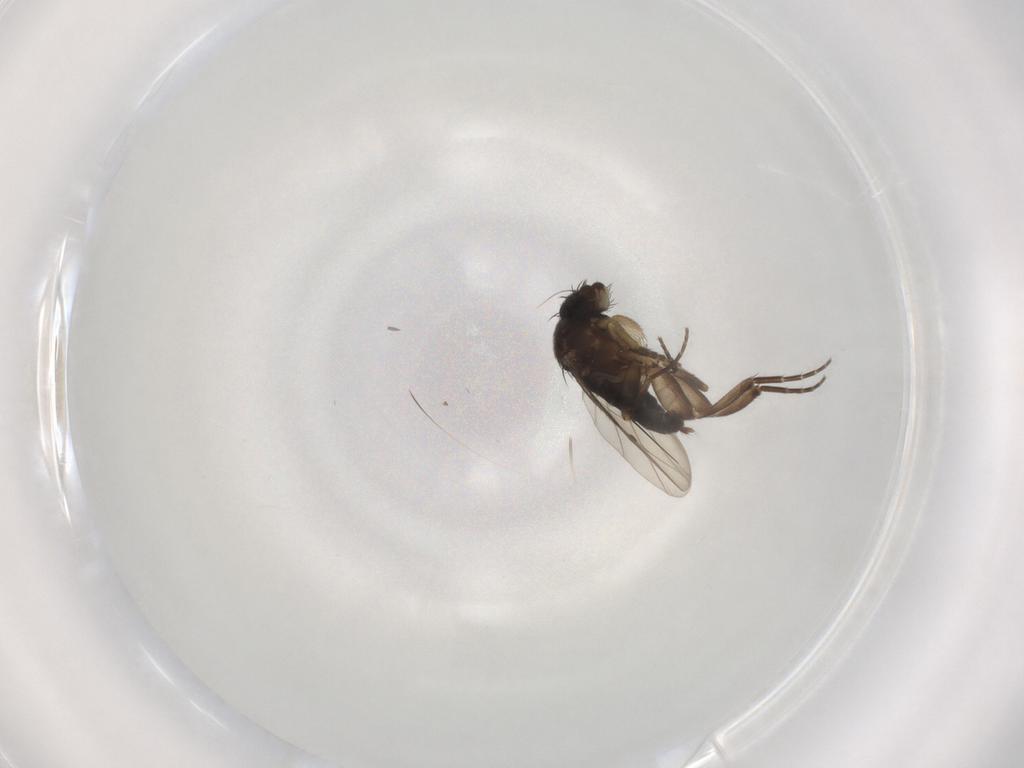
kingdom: Animalia
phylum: Arthropoda
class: Insecta
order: Diptera
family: Phoridae
